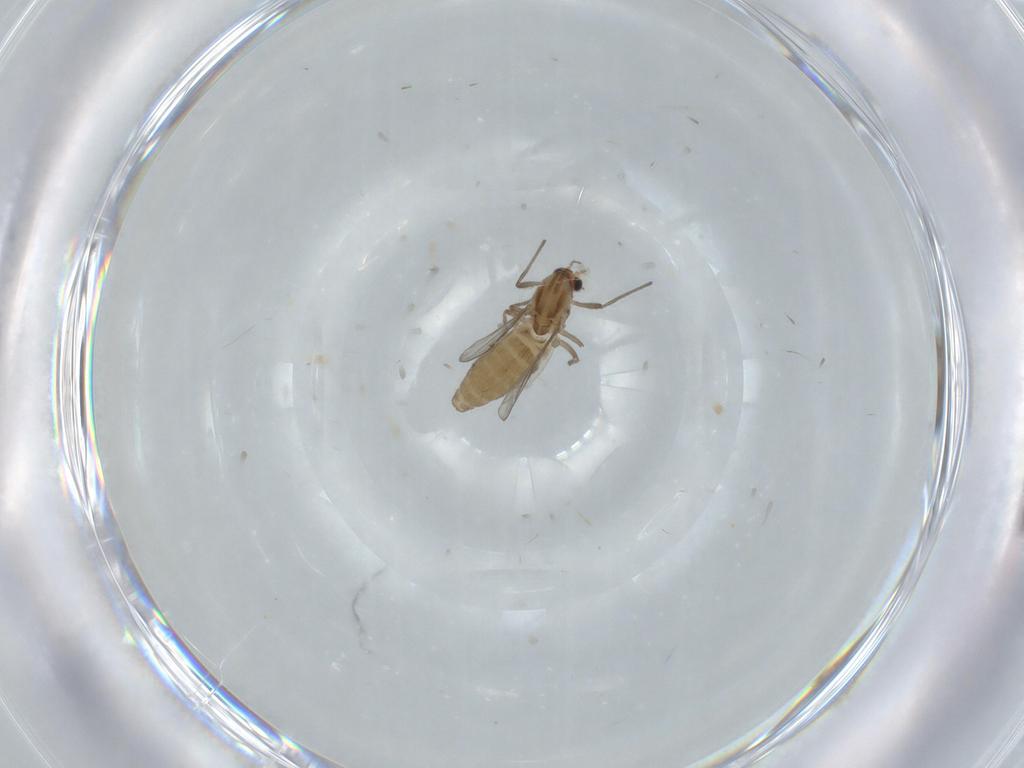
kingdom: Animalia
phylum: Arthropoda
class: Insecta
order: Diptera
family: Chironomidae
